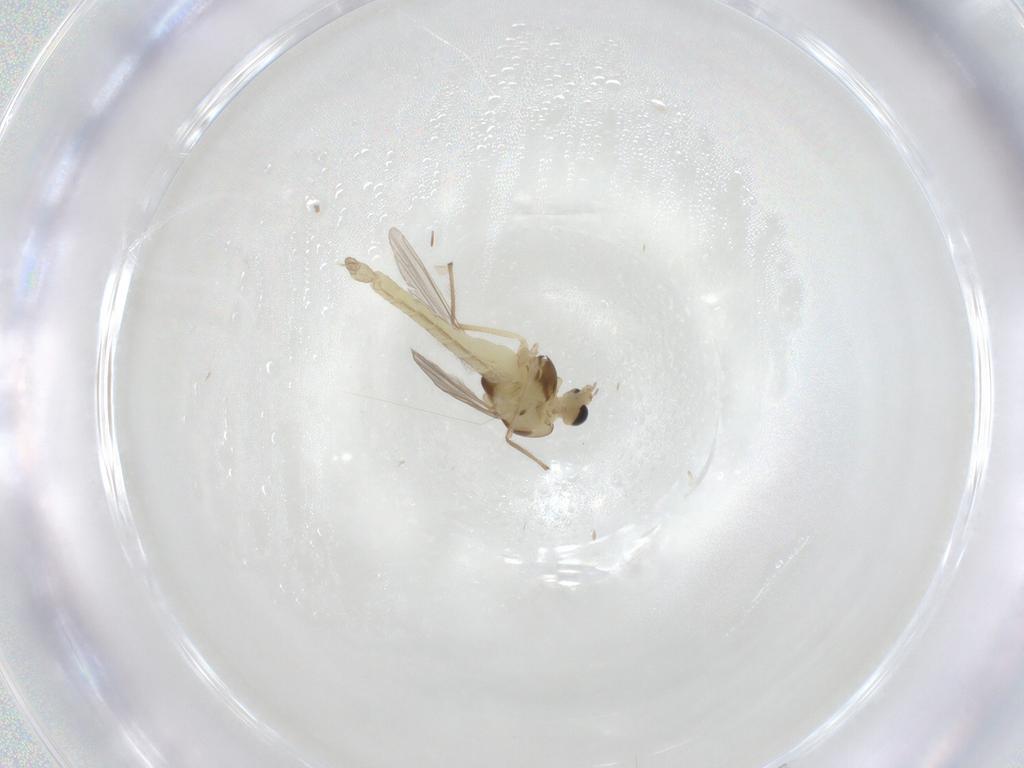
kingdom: Animalia
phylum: Arthropoda
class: Insecta
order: Diptera
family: Chironomidae
